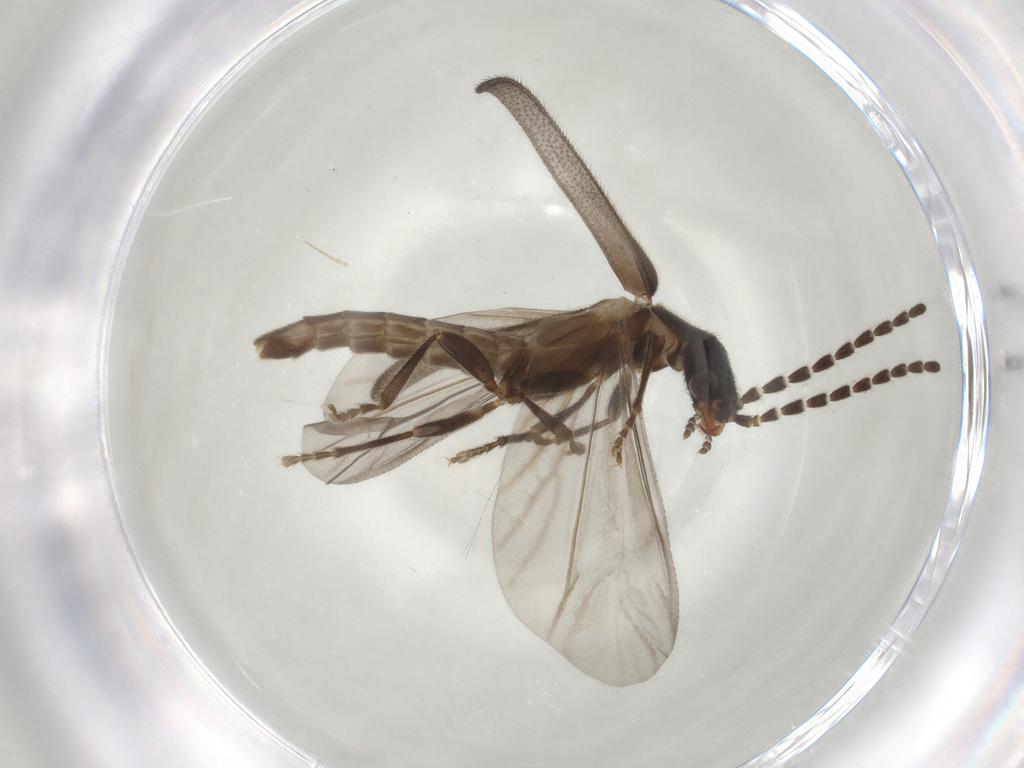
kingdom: Animalia
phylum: Arthropoda
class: Insecta
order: Coleoptera
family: Cantharidae
